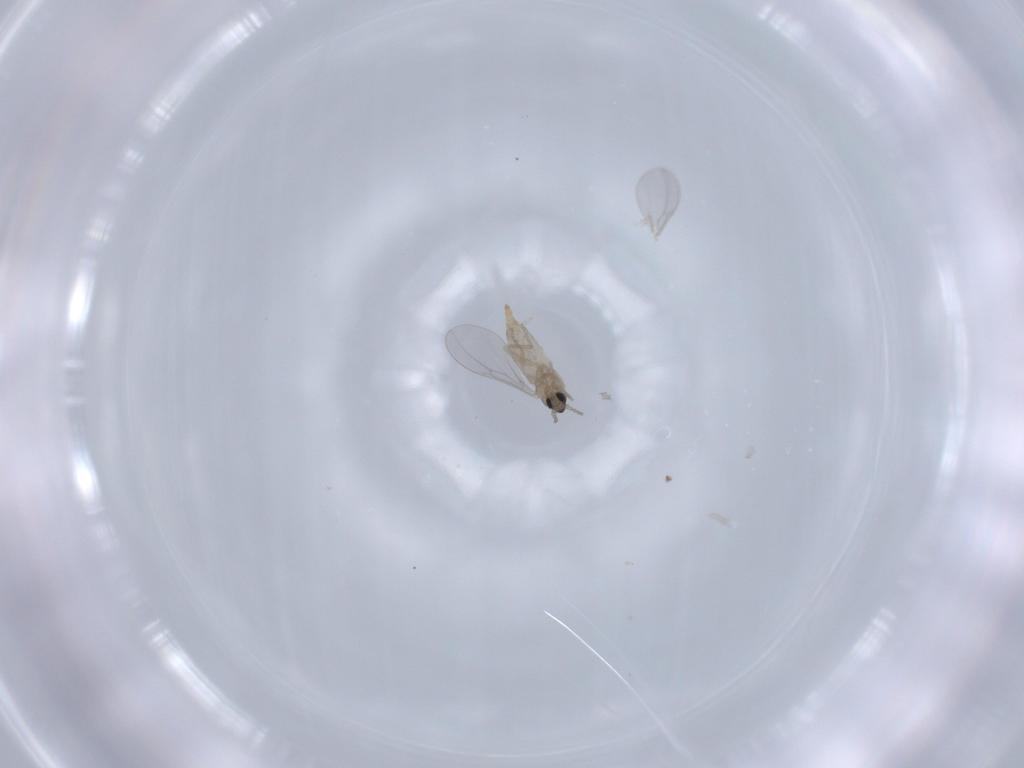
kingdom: Animalia
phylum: Arthropoda
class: Insecta
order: Diptera
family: Cecidomyiidae
